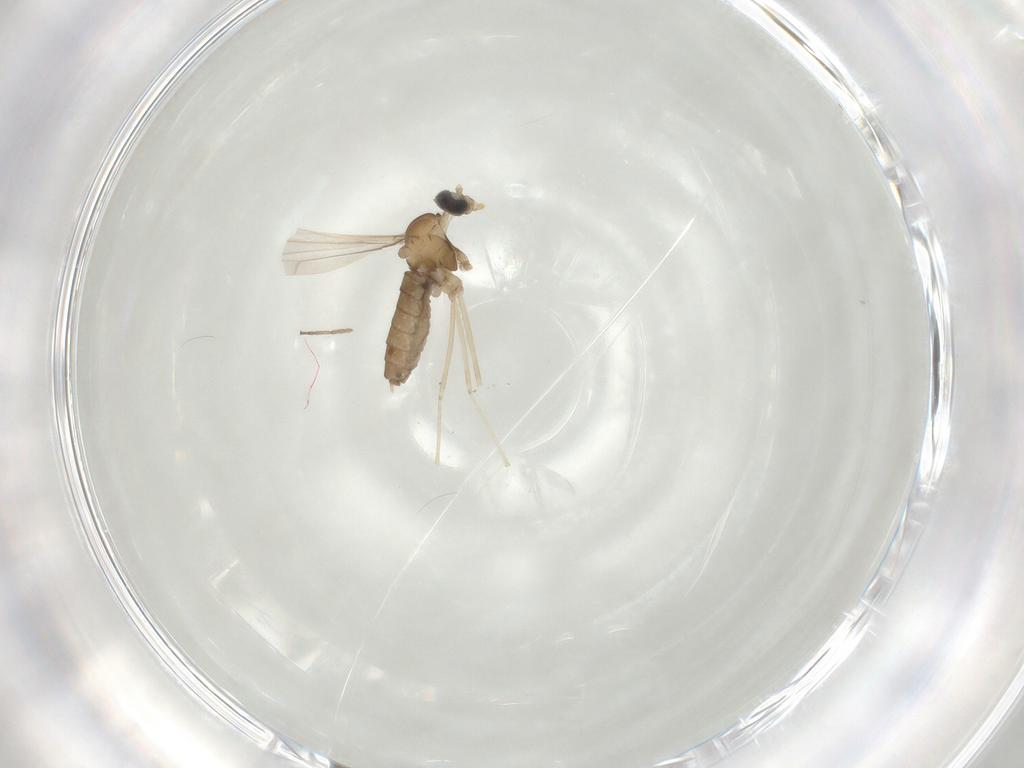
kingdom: Animalia
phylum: Arthropoda
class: Insecta
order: Diptera
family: Cecidomyiidae
